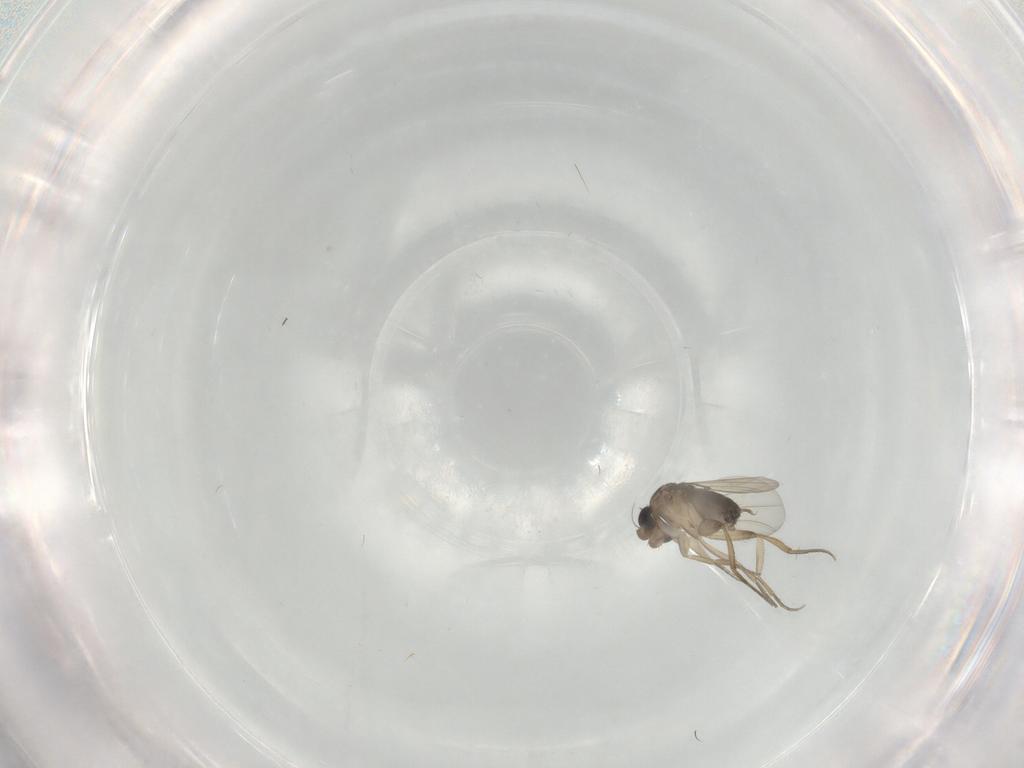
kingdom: Animalia
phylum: Arthropoda
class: Insecta
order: Diptera
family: Phoridae
